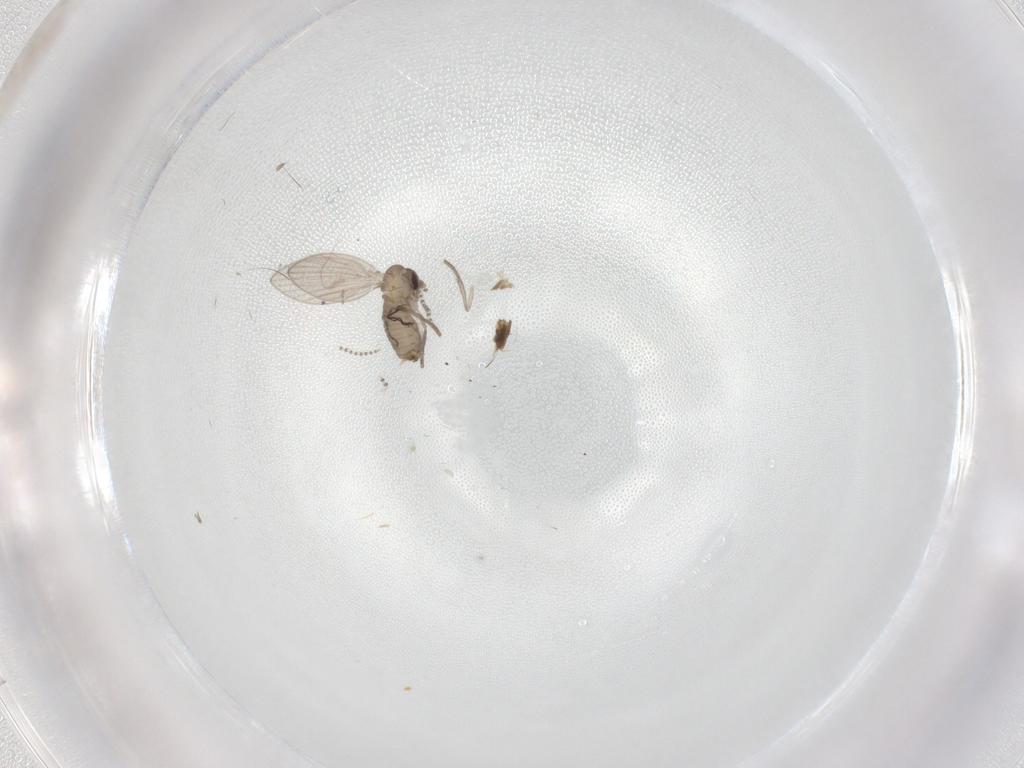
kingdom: Animalia
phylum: Arthropoda
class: Insecta
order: Diptera
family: Psychodidae
